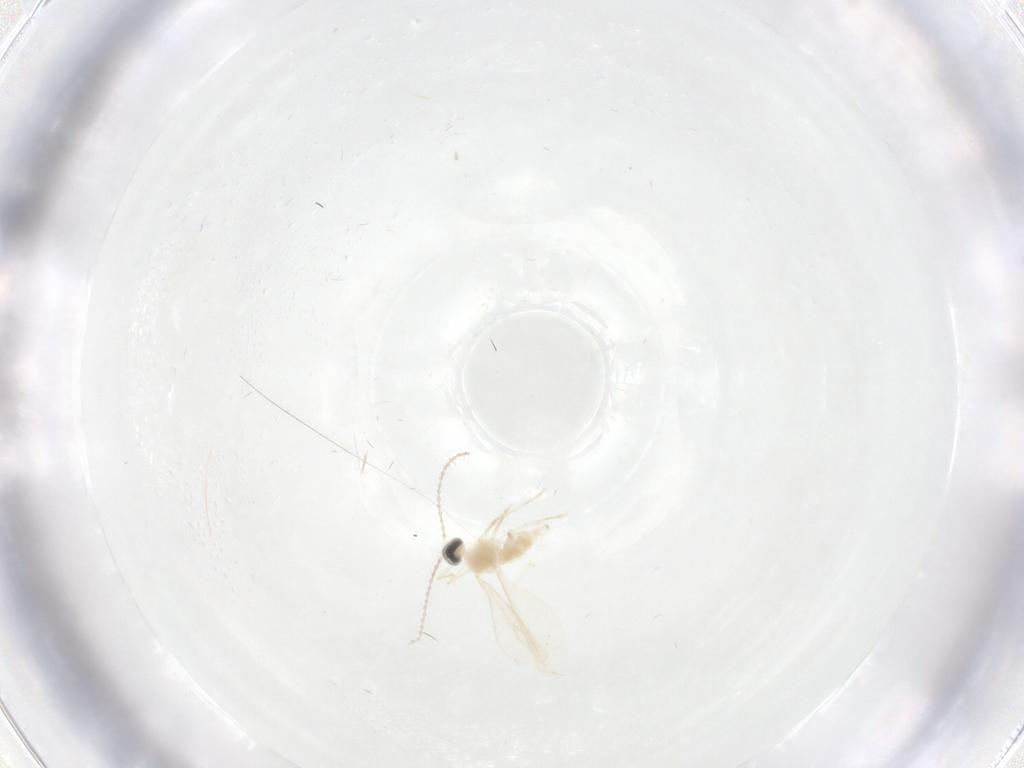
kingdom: Animalia
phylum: Arthropoda
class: Insecta
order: Diptera
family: Cecidomyiidae
